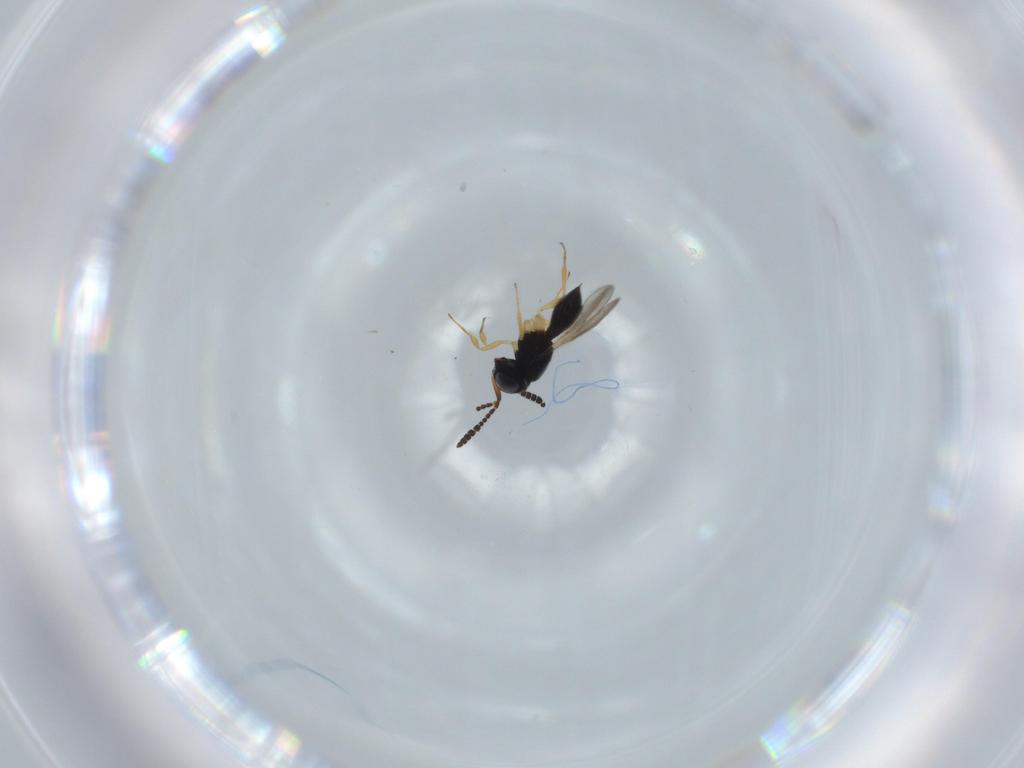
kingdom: Animalia
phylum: Arthropoda
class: Insecta
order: Hymenoptera
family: Scelionidae
